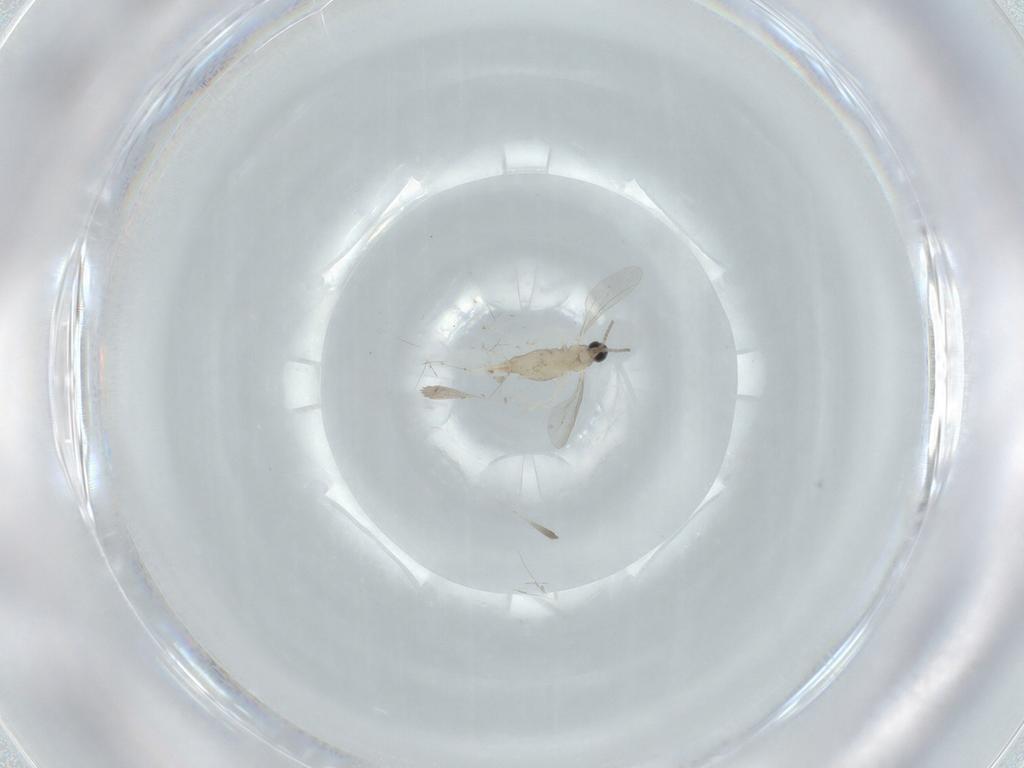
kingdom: Animalia
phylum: Arthropoda
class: Insecta
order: Diptera
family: Cecidomyiidae
